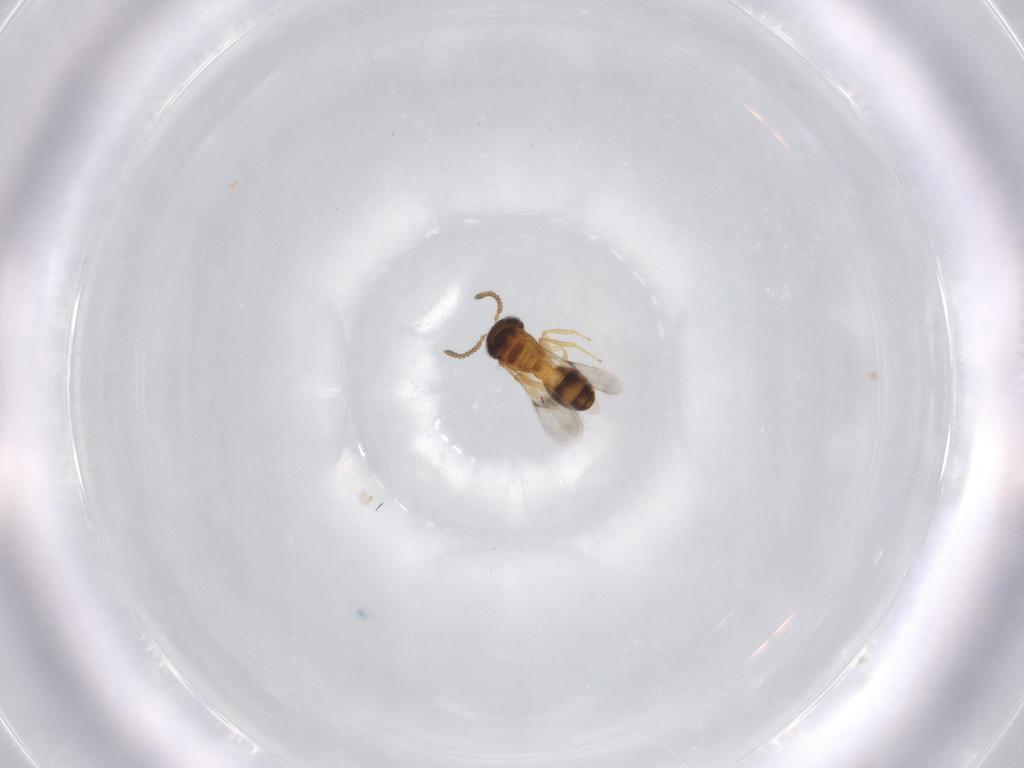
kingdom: Animalia
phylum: Arthropoda
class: Insecta
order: Hymenoptera
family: Scelionidae
